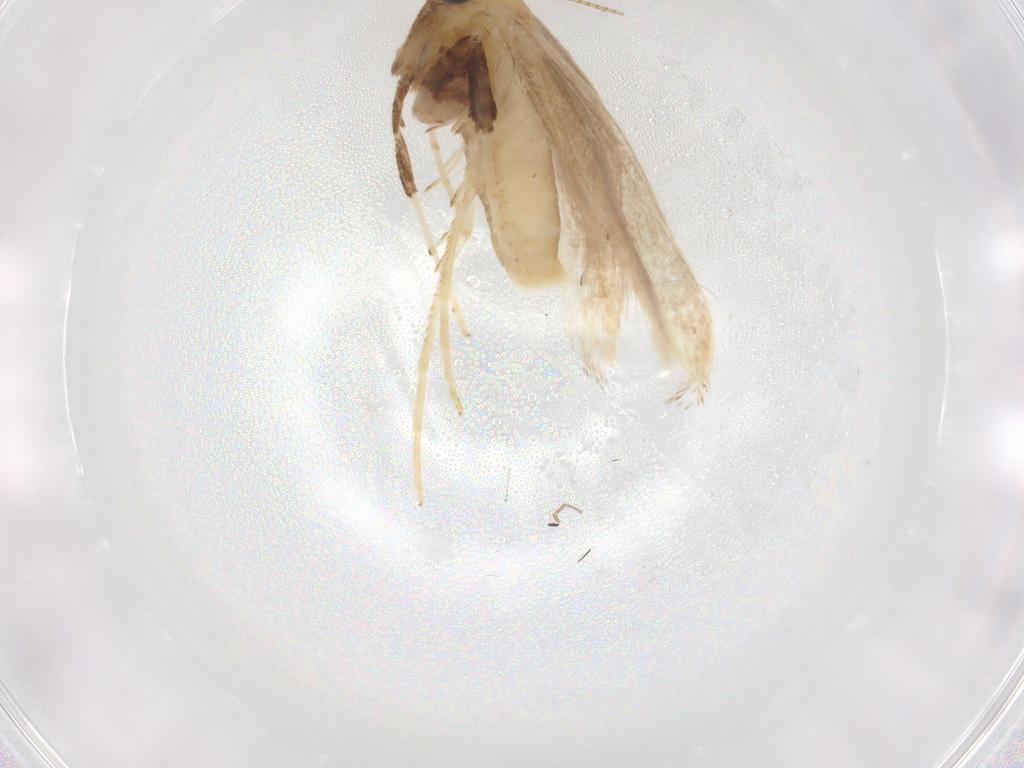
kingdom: Animalia
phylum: Arthropoda
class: Insecta
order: Lepidoptera
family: Gracillariidae
